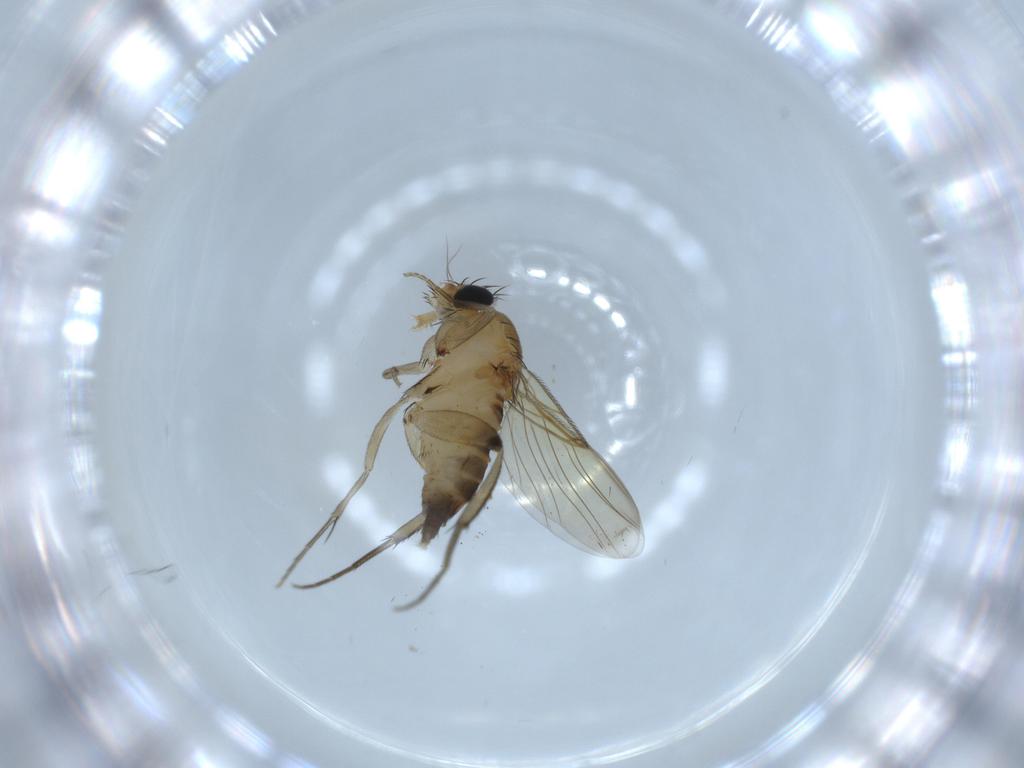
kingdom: Animalia
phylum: Arthropoda
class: Insecta
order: Diptera
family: Phoridae
